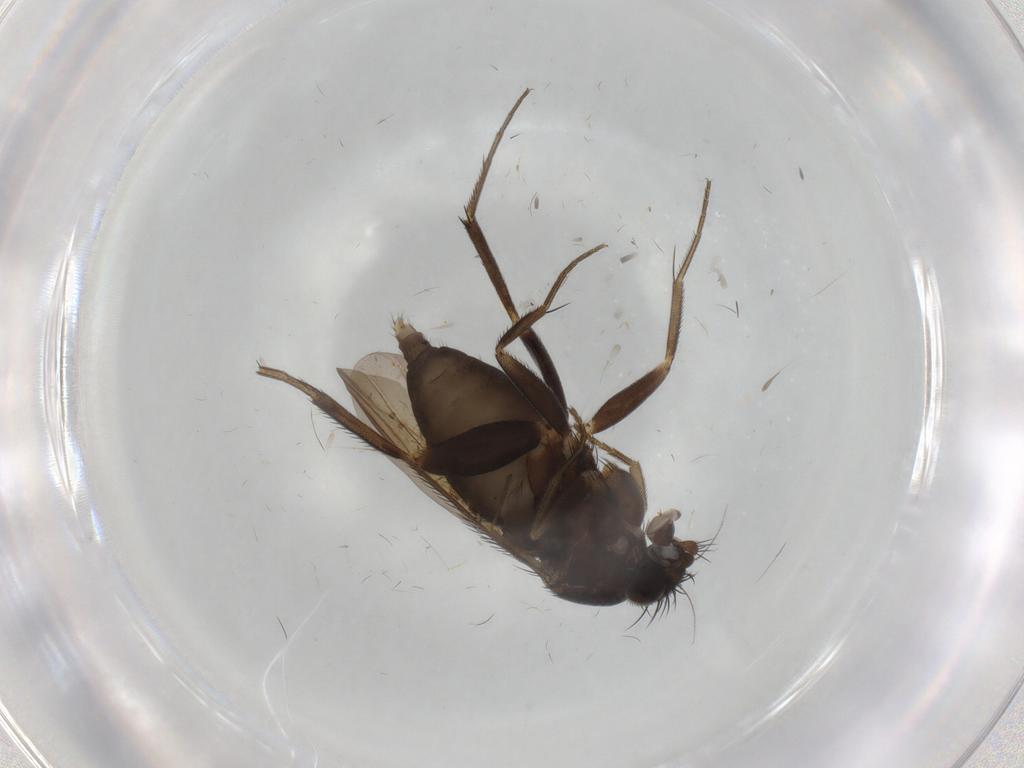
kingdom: Animalia
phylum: Arthropoda
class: Insecta
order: Diptera
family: Phoridae
